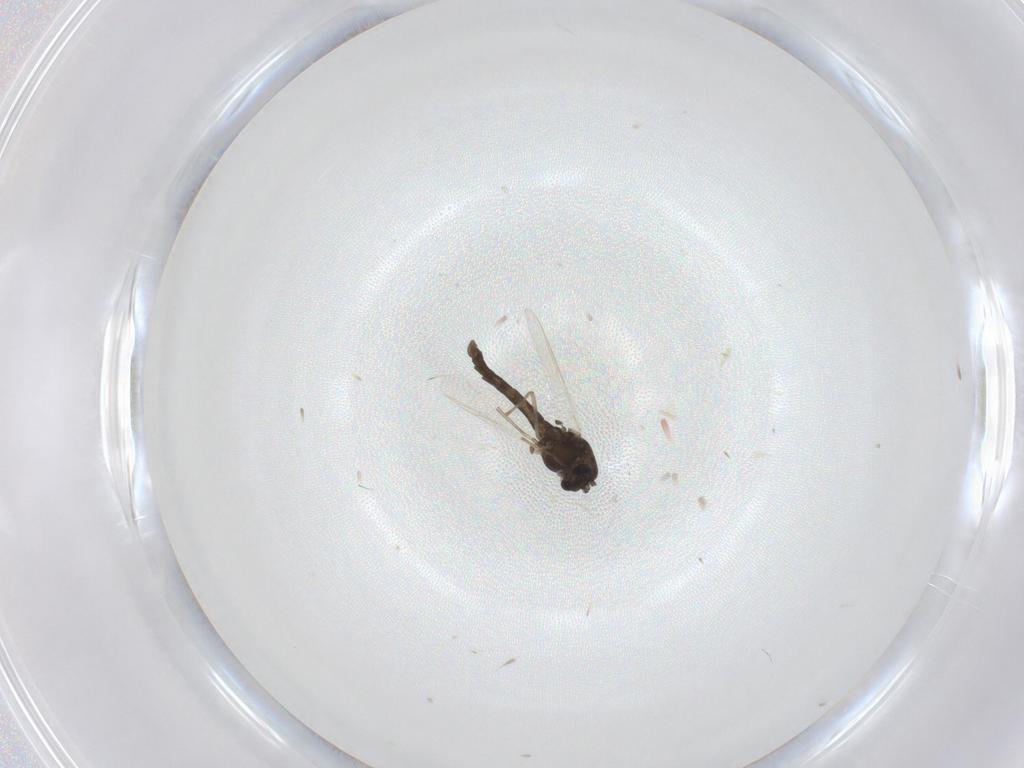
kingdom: Animalia
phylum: Arthropoda
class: Insecta
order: Diptera
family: Chironomidae
